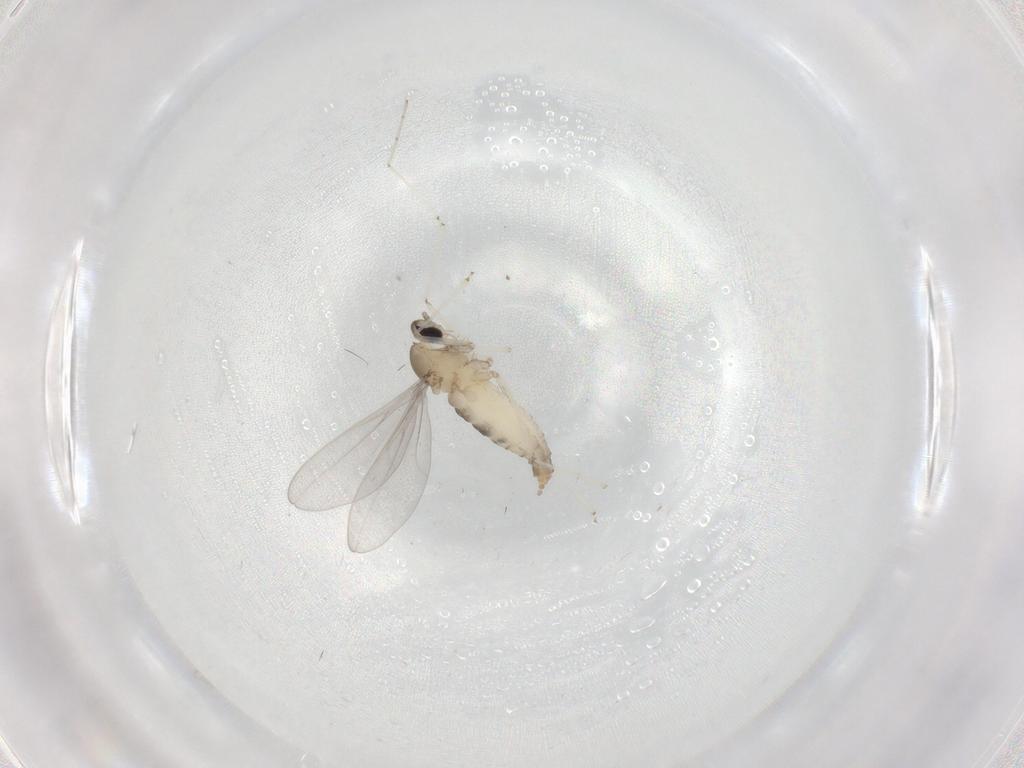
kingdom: Animalia
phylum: Arthropoda
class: Insecta
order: Diptera
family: Cecidomyiidae
